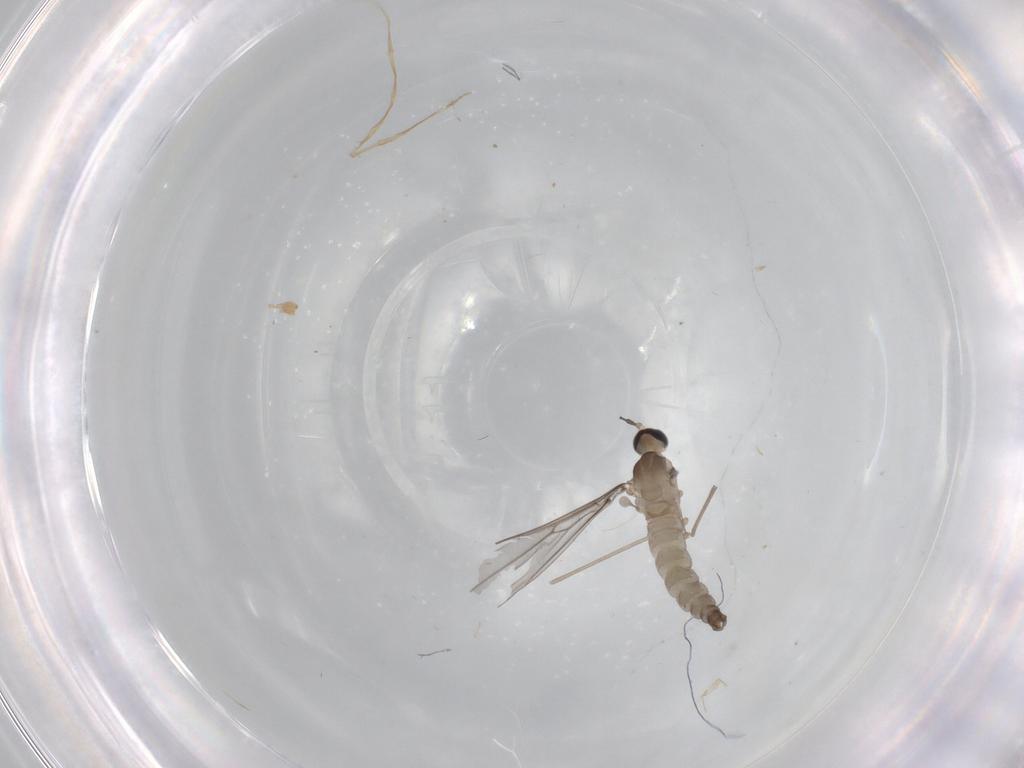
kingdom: Animalia
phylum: Arthropoda
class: Insecta
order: Diptera
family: Cecidomyiidae
